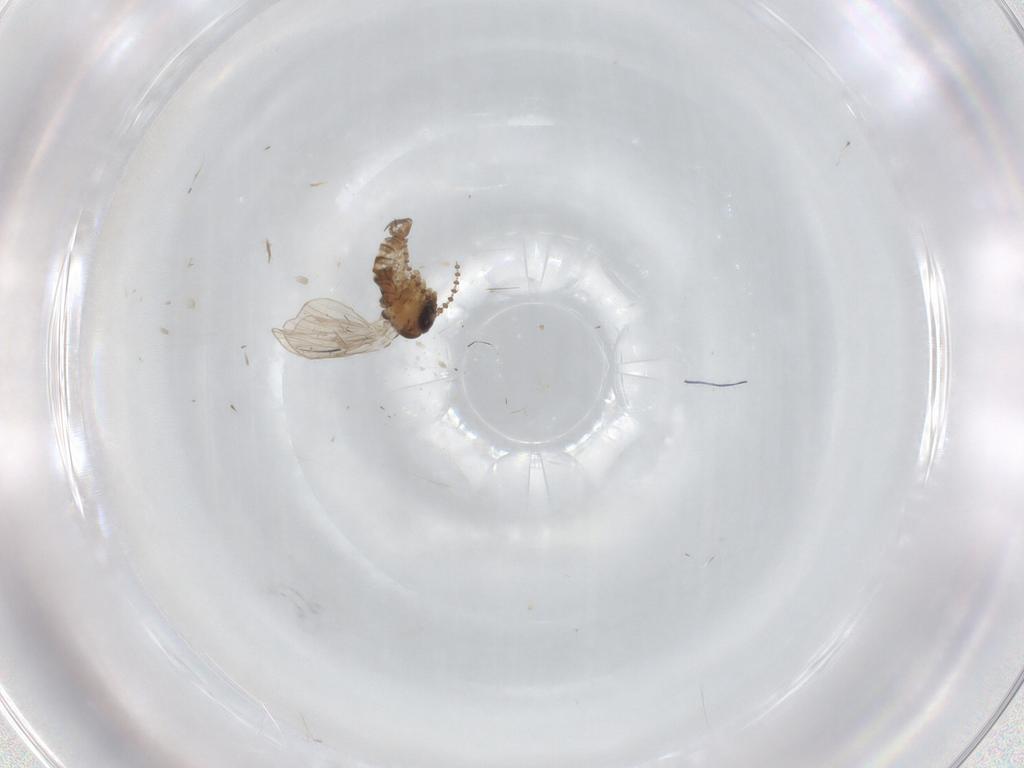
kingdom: Animalia
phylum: Arthropoda
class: Insecta
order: Diptera
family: Psychodidae
